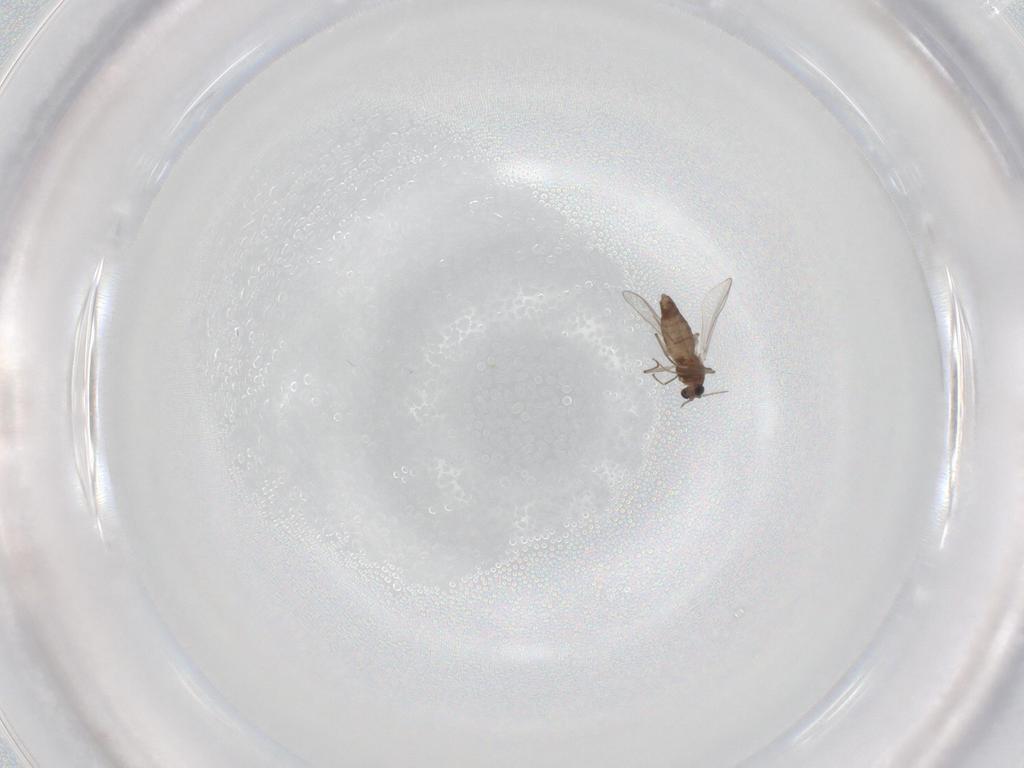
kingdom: Animalia
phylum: Arthropoda
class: Insecta
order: Diptera
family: Chironomidae
